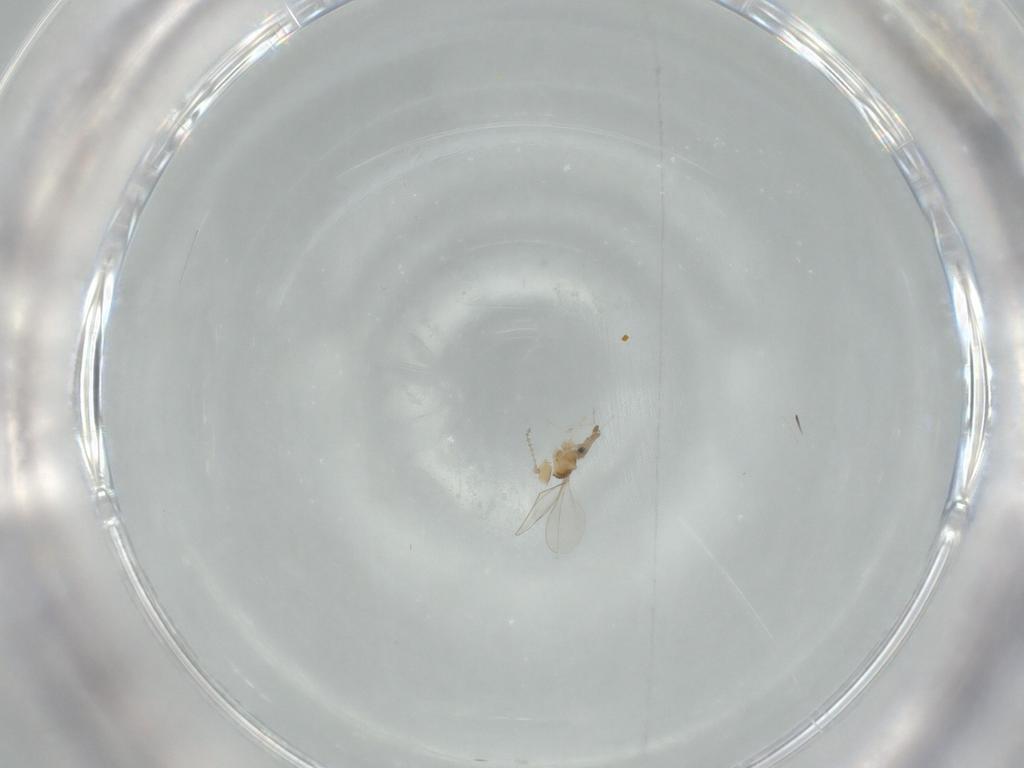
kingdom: Animalia
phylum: Arthropoda
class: Insecta
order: Diptera
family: Cecidomyiidae
